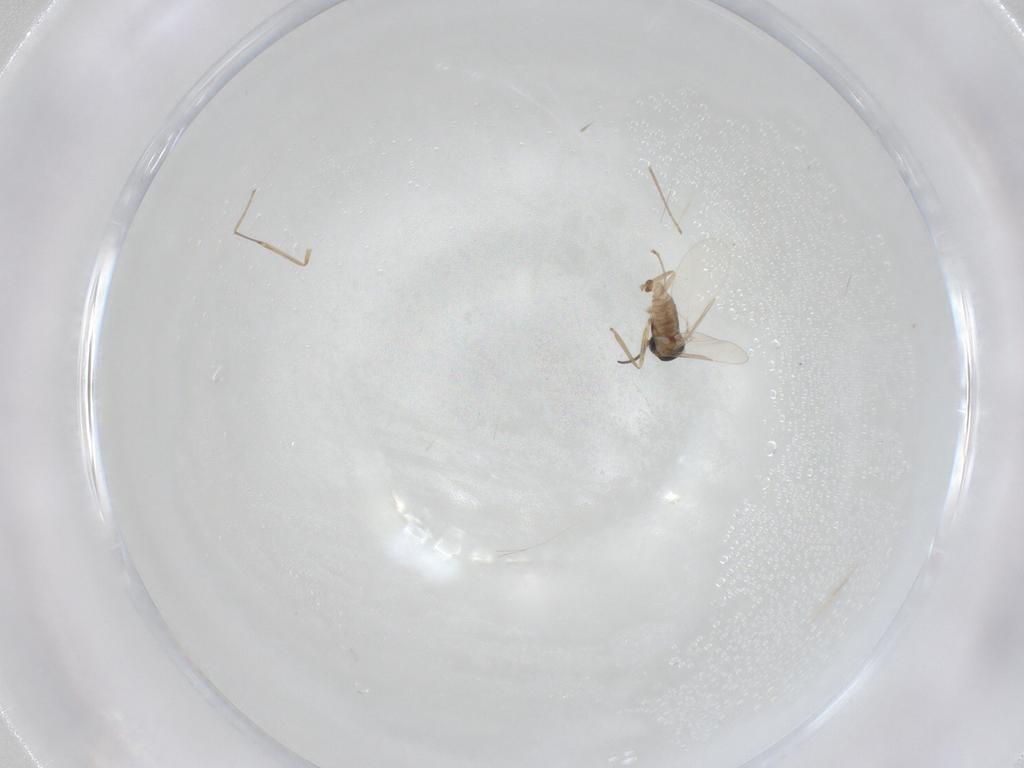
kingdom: Animalia
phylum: Arthropoda
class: Insecta
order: Diptera
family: Cecidomyiidae
